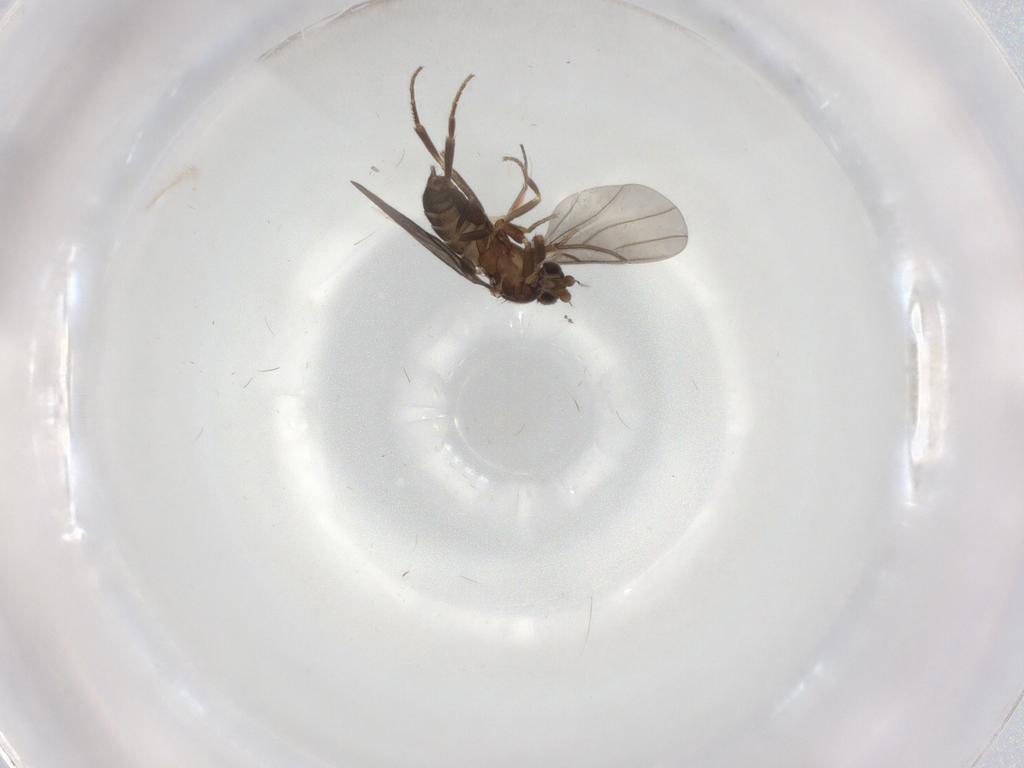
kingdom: Animalia
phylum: Arthropoda
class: Insecta
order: Diptera
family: Phoridae
